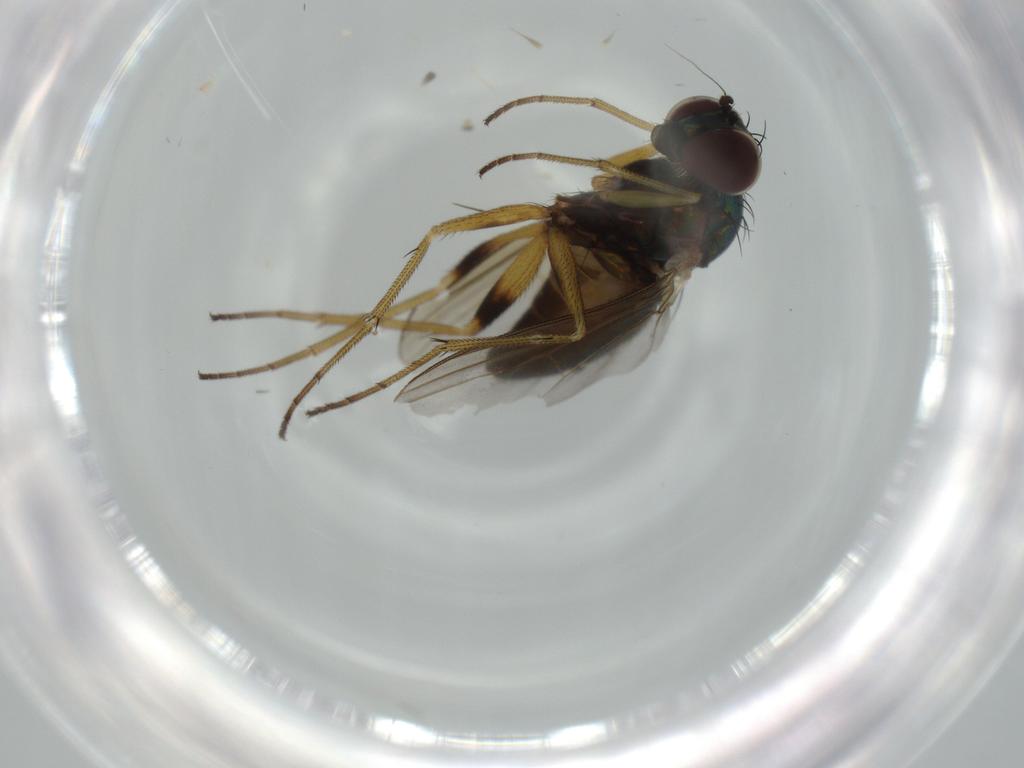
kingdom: Animalia
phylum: Arthropoda
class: Insecta
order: Diptera
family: Dolichopodidae
